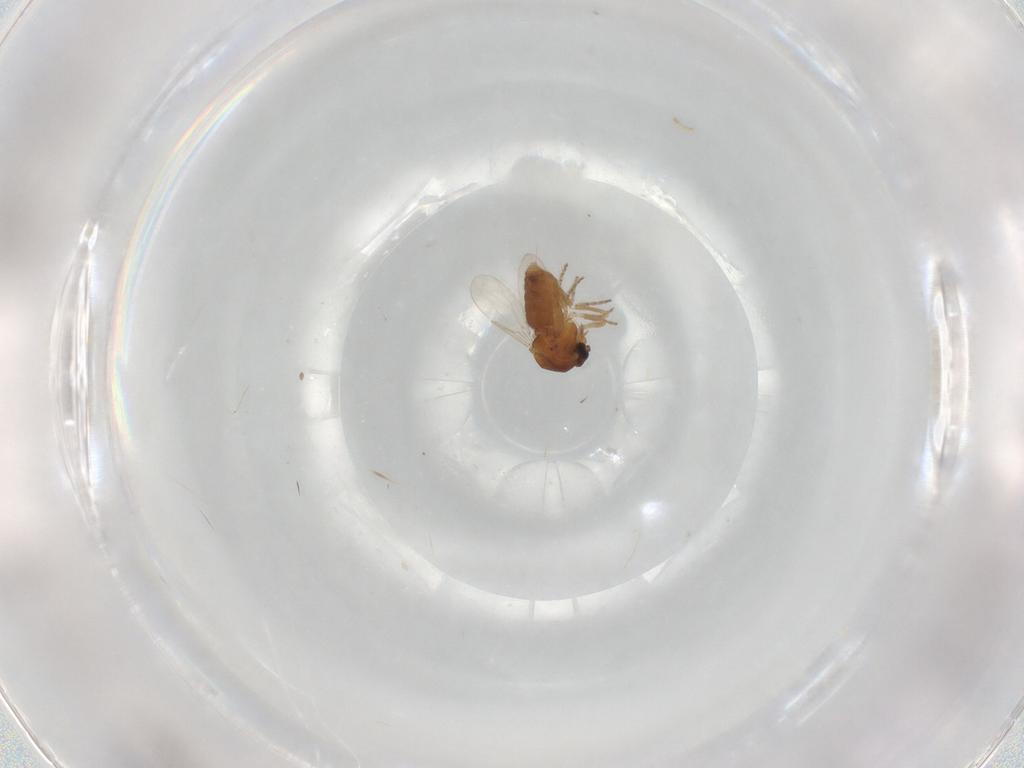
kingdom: Animalia
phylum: Arthropoda
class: Insecta
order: Diptera
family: Ceratopogonidae
